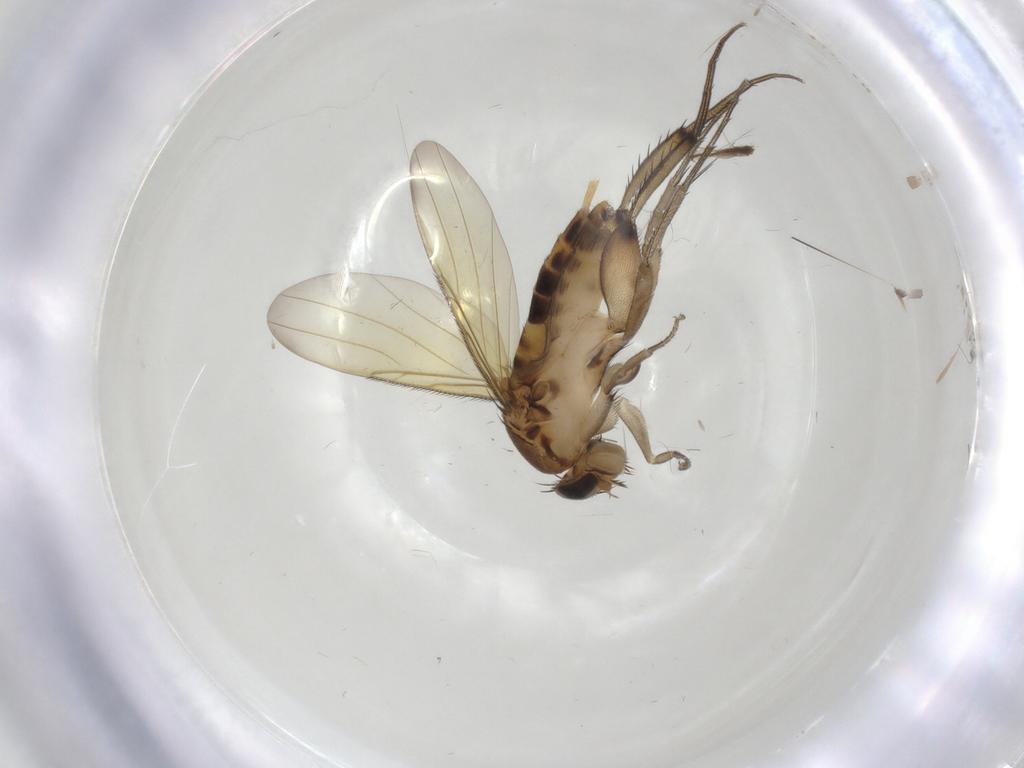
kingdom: Animalia
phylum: Arthropoda
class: Insecta
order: Diptera
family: Phoridae
